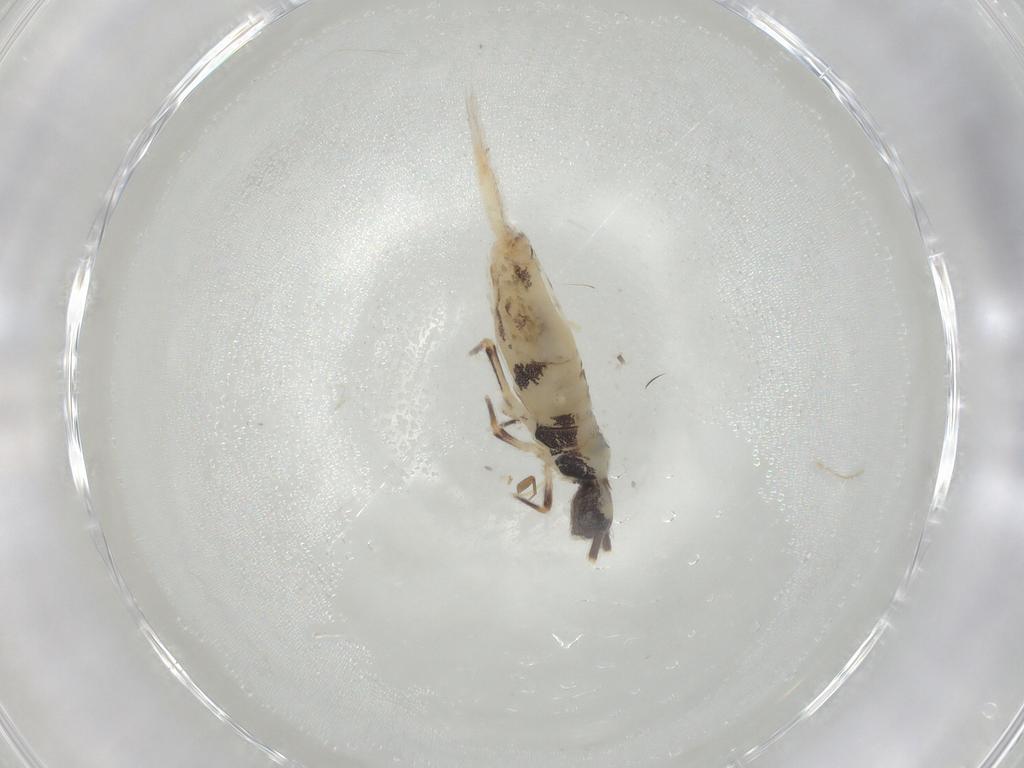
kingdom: Animalia
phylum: Arthropoda
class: Collembola
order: Entomobryomorpha
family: Entomobryidae
